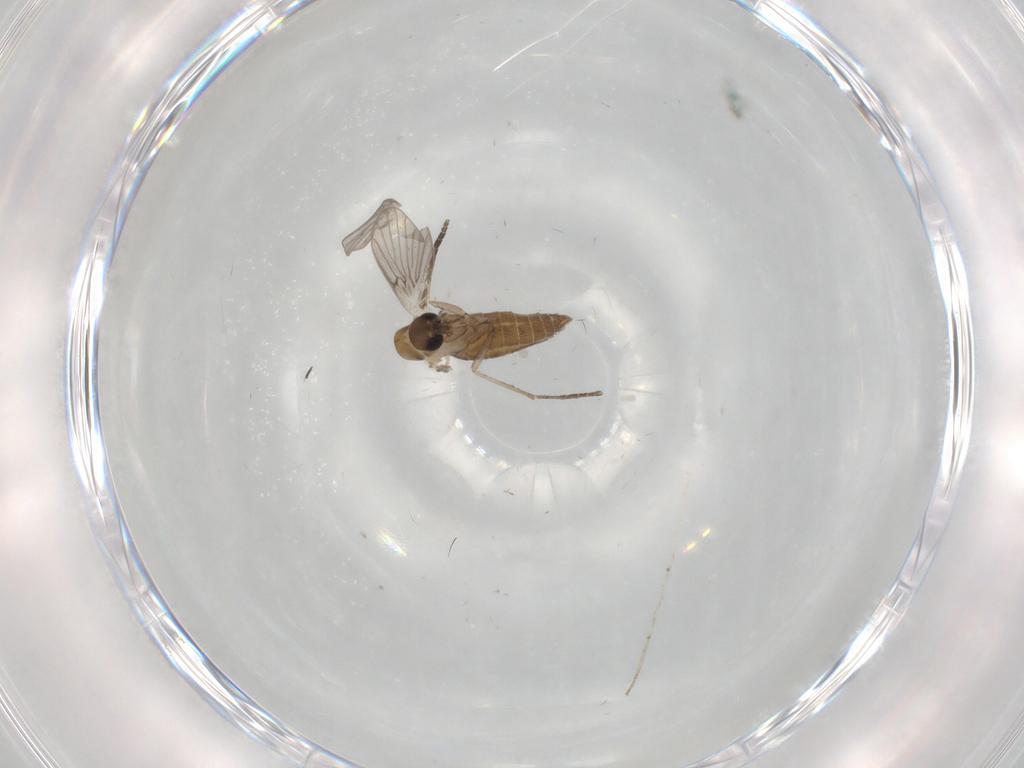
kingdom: Animalia
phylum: Arthropoda
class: Insecta
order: Diptera
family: Psychodidae
